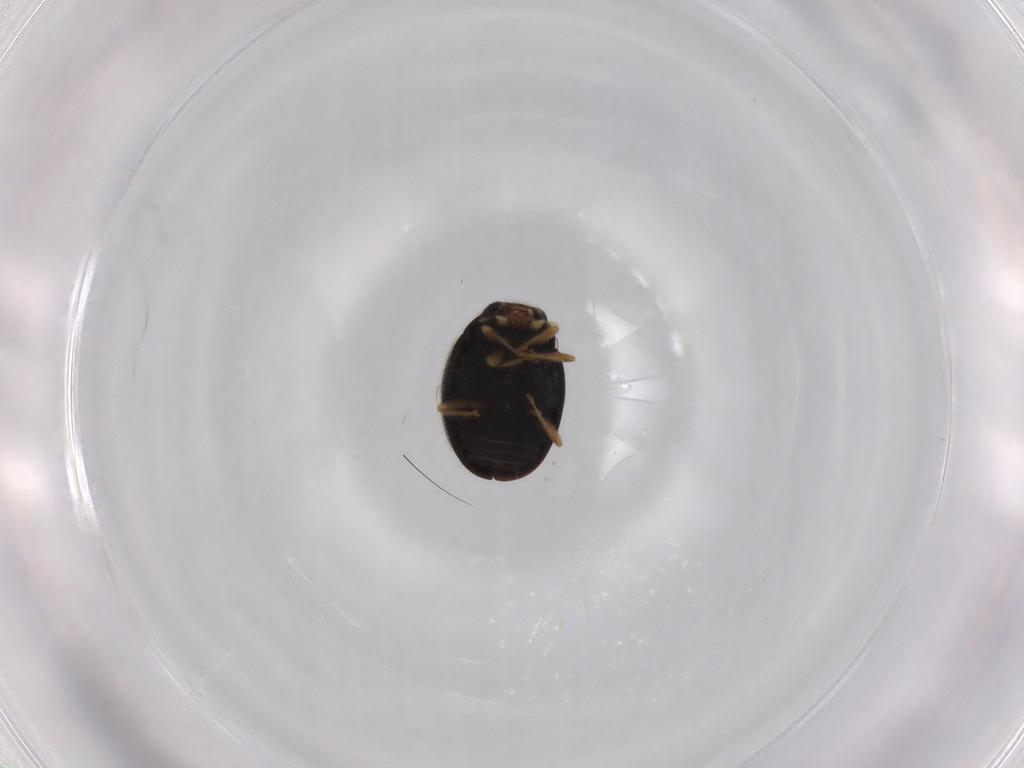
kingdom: Animalia
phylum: Arthropoda
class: Insecta
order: Coleoptera
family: Coccinellidae
